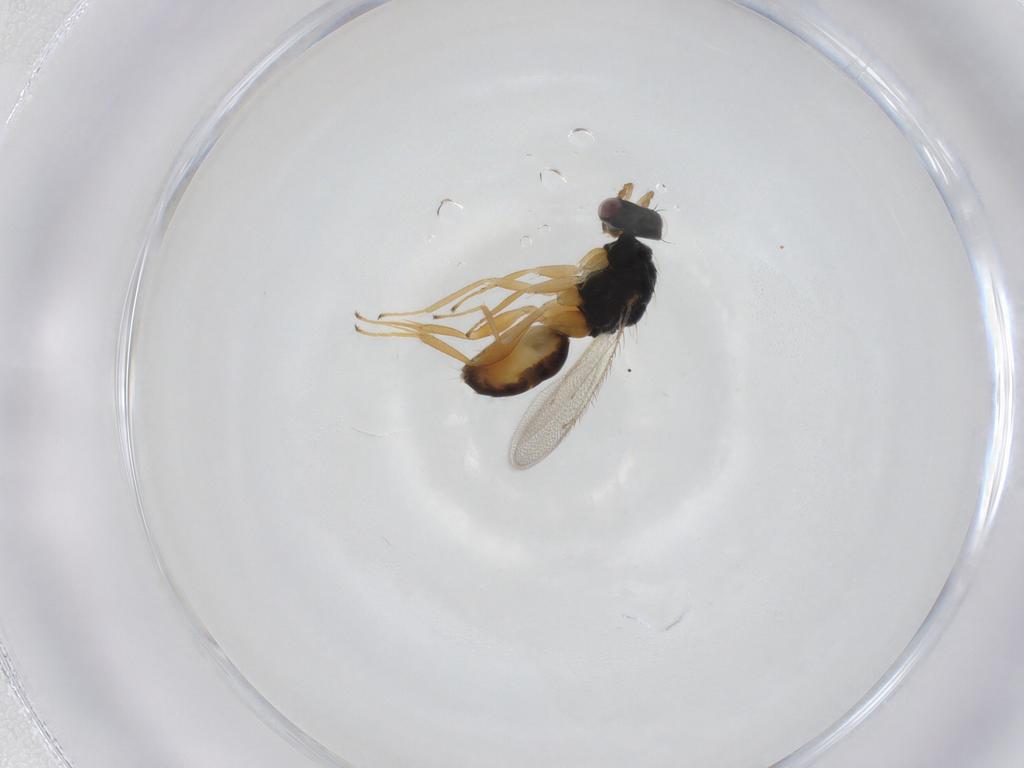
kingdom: Animalia
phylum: Arthropoda
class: Insecta
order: Hymenoptera
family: Eulophidae
